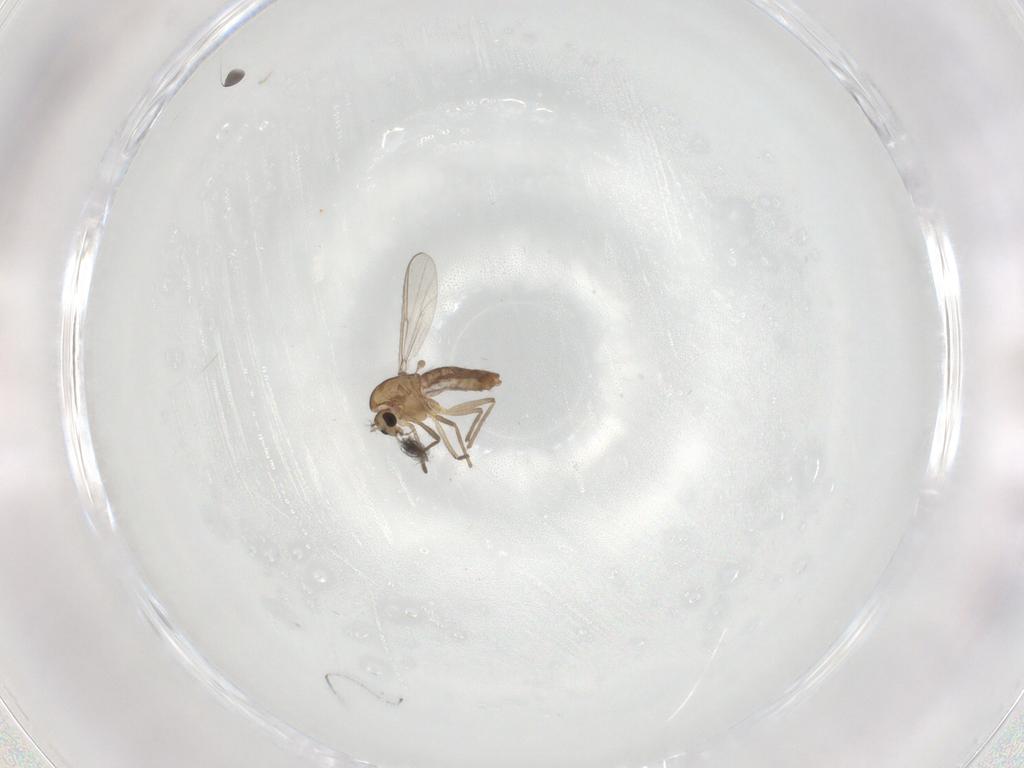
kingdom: Animalia
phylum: Arthropoda
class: Insecta
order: Diptera
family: Chironomidae
